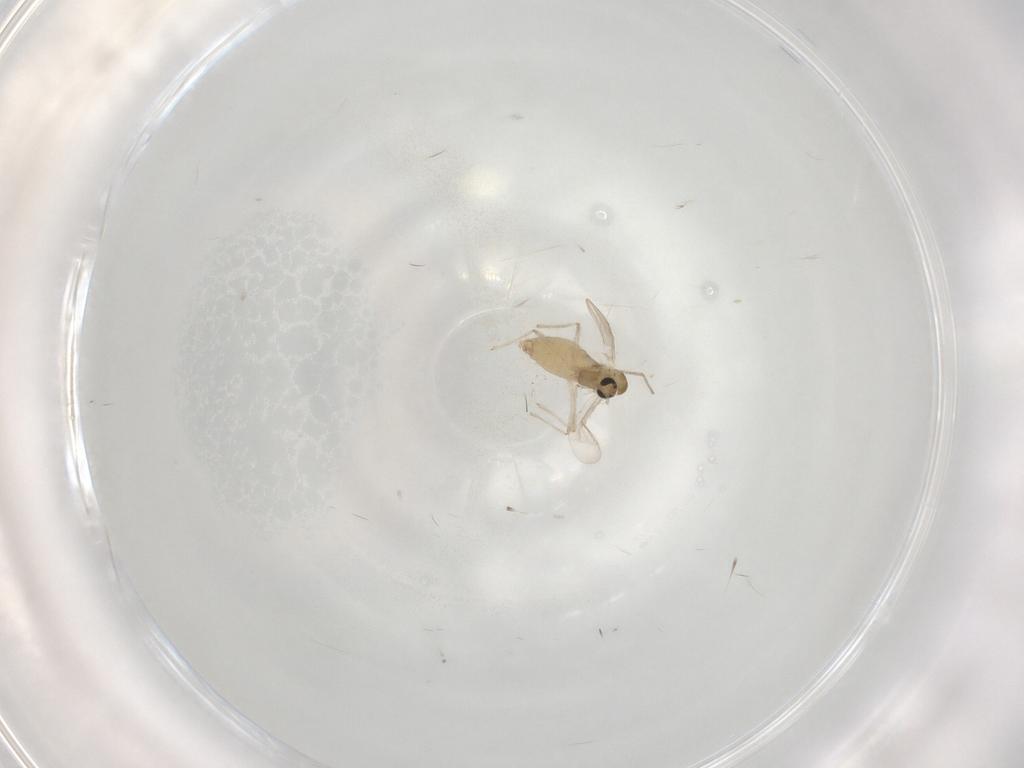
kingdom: Animalia
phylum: Arthropoda
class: Insecta
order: Diptera
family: Chironomidae
